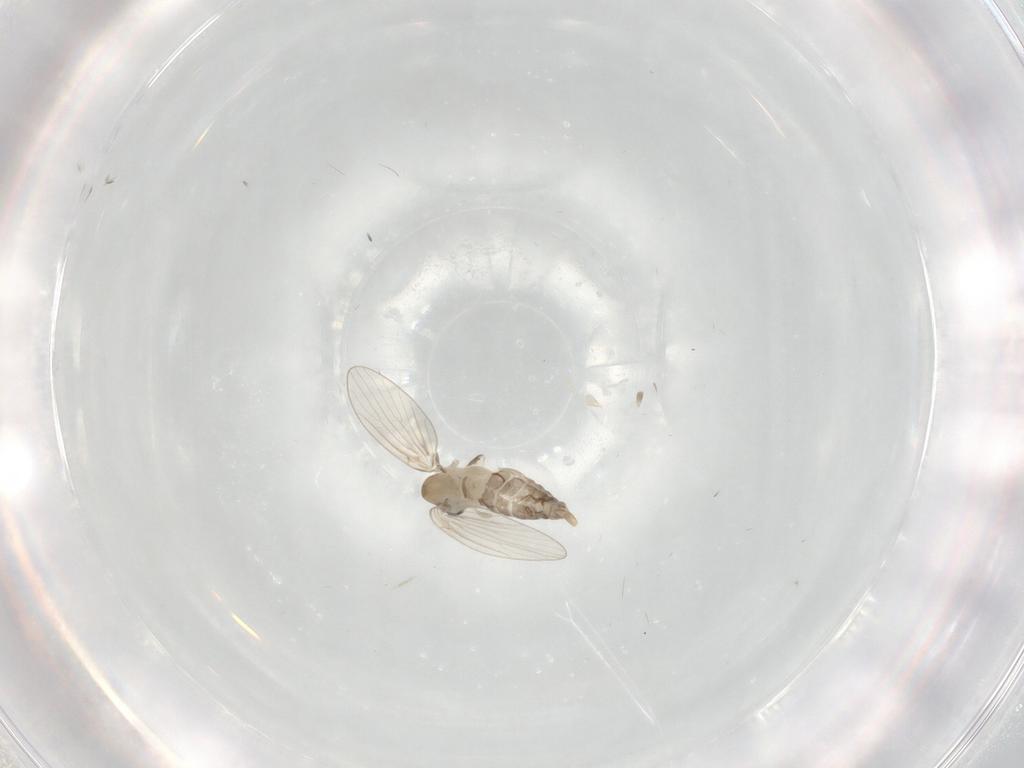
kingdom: Animalia
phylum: Arthropoda
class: Insecta
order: Diptera
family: Psychodidae
